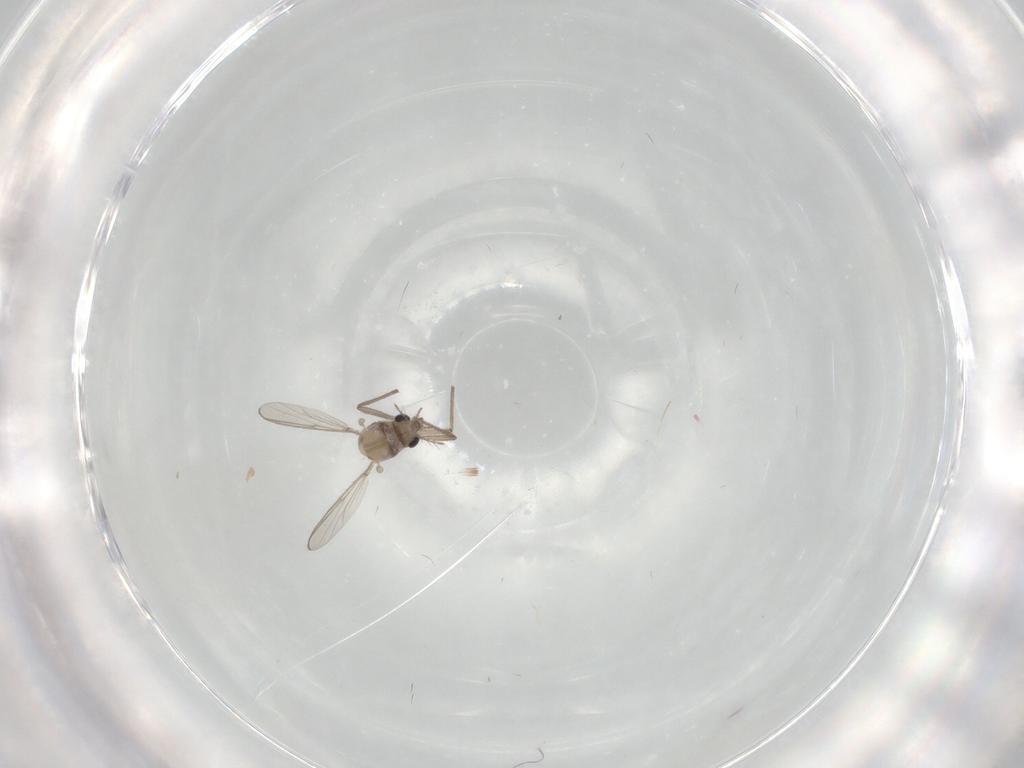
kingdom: Animalia
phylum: Arthropoda
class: Insecta
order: Diptera
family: Chironomidae
